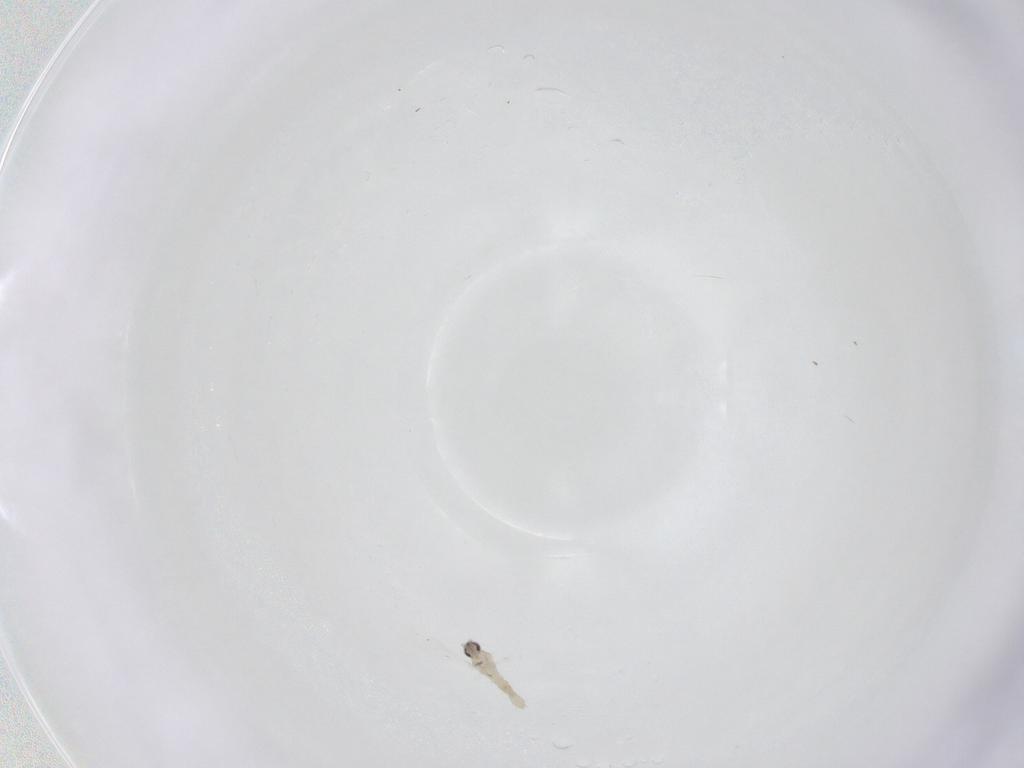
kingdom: Animalia
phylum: Arthropoda
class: Insecta
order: Diptera
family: Cecidomyiidae
